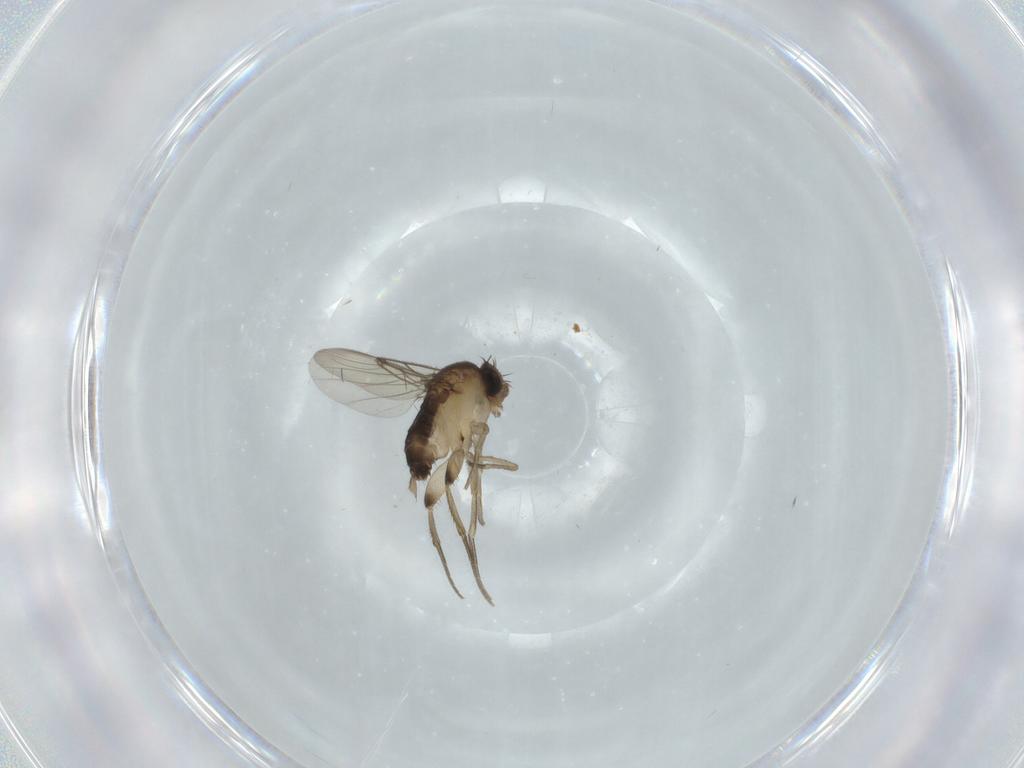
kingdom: Animalia
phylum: Arthropoda
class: Insecta
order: Diptera
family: Phoridae
